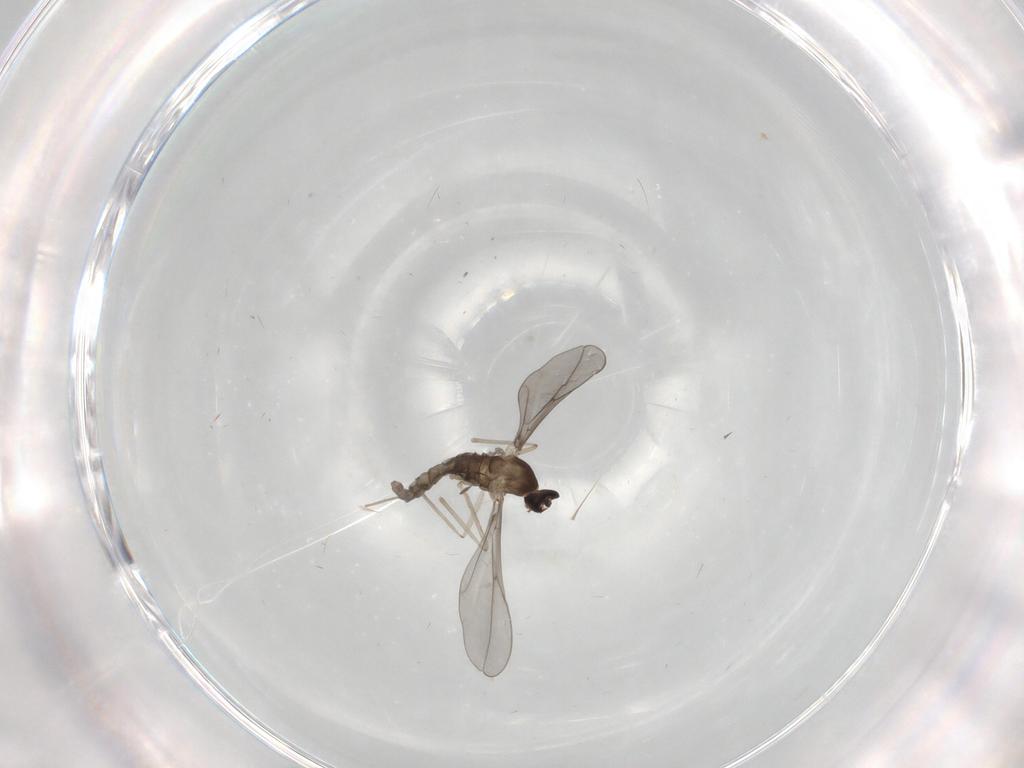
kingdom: Animalia
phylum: Arthropoda
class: Insecta
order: Diptera
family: Cecidomyiidae
